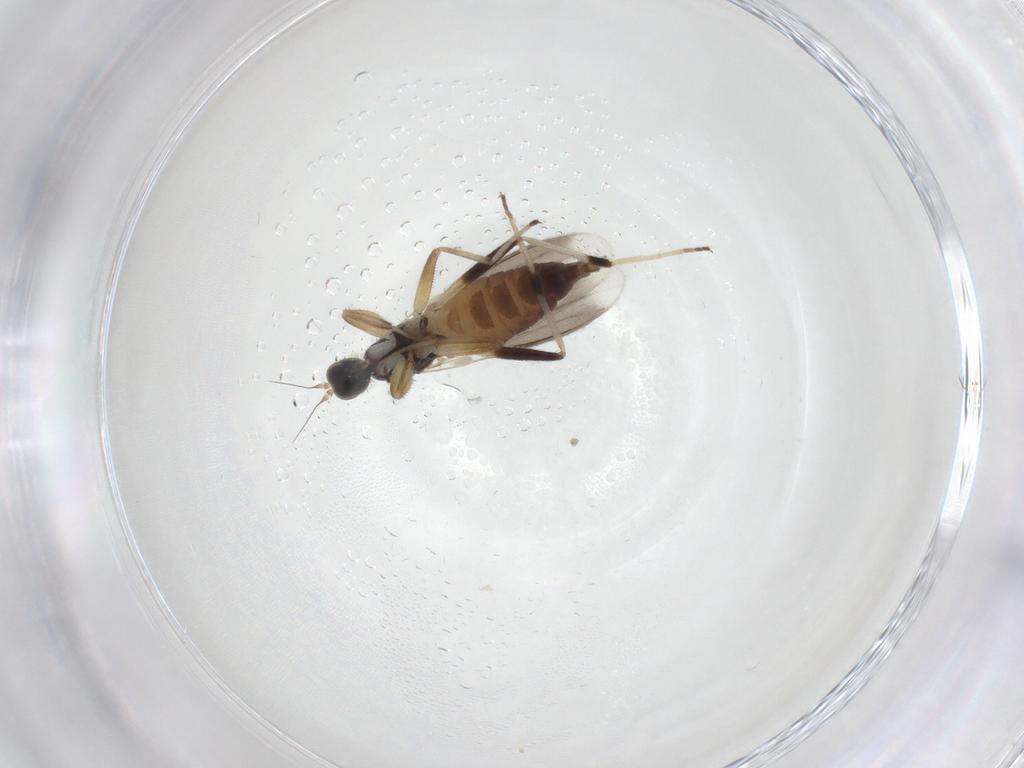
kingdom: Animalia
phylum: Arthropoda
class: Insecta
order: Diptera
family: Hybotidae
